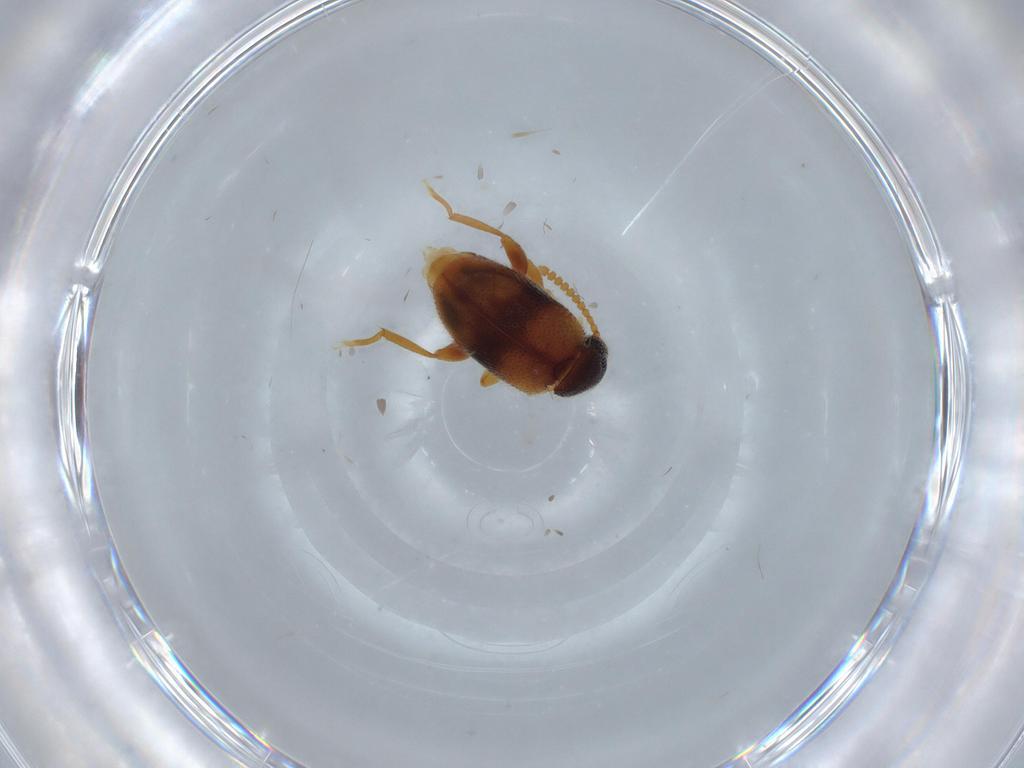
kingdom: Animalia
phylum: Arthropoda
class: Insecta
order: Coleoptera
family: Aderidae
